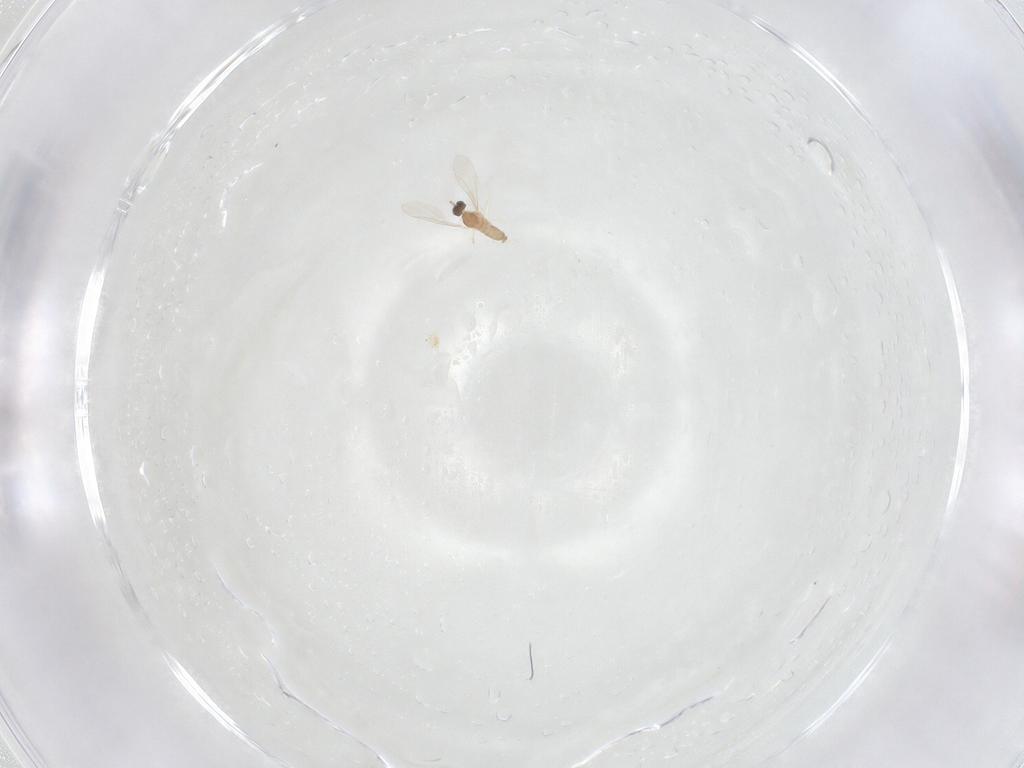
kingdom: Animalia
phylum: Arthropoda
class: Insecta
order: Diptera
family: Cecidomyiidae
